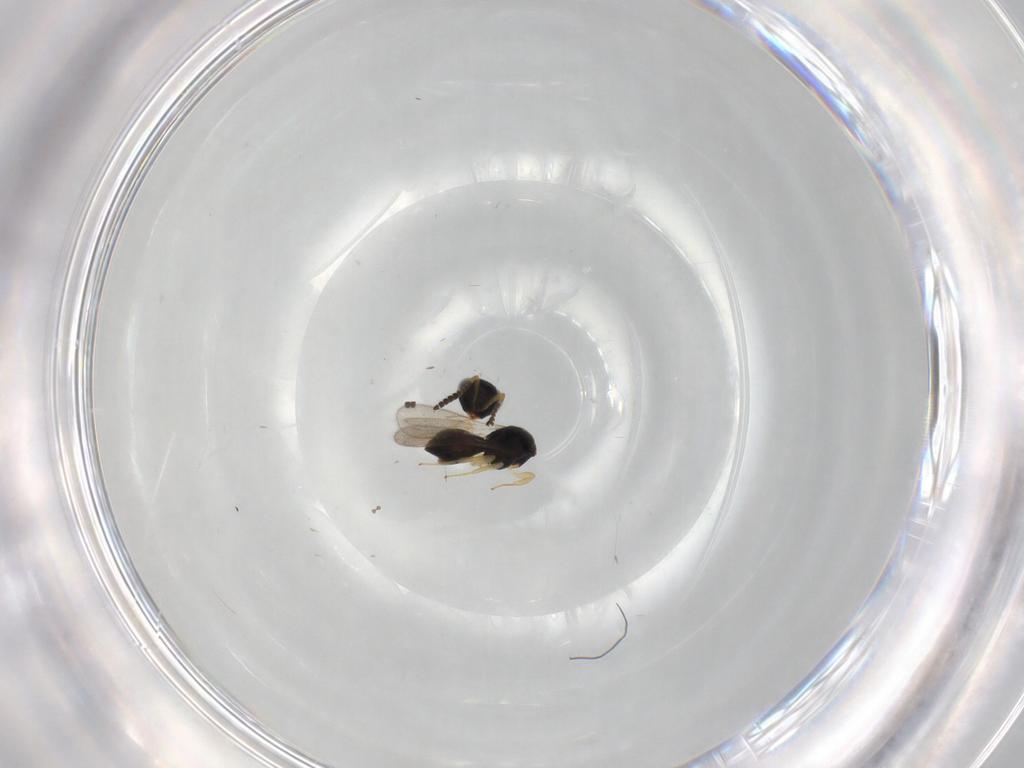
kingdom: Animalia
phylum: Arthropoda
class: Insecta
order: Hymenoptera
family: Scelionidae
